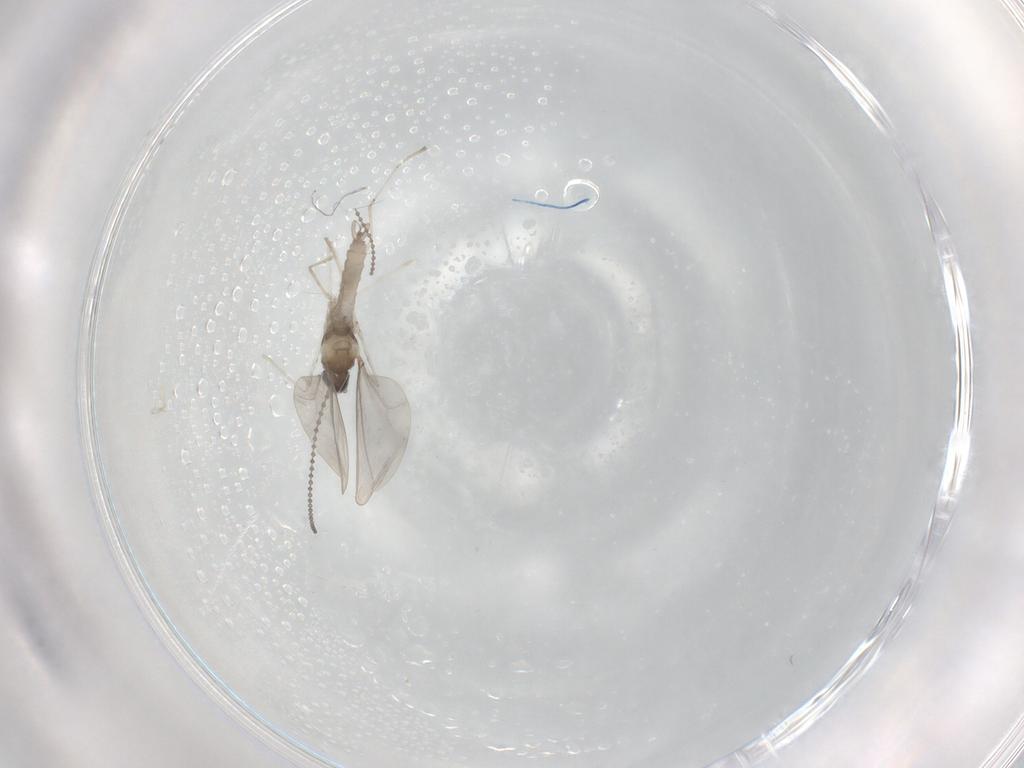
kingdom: Animalia
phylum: Arthropoda
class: Insecta
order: Diptera
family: Phoridae
